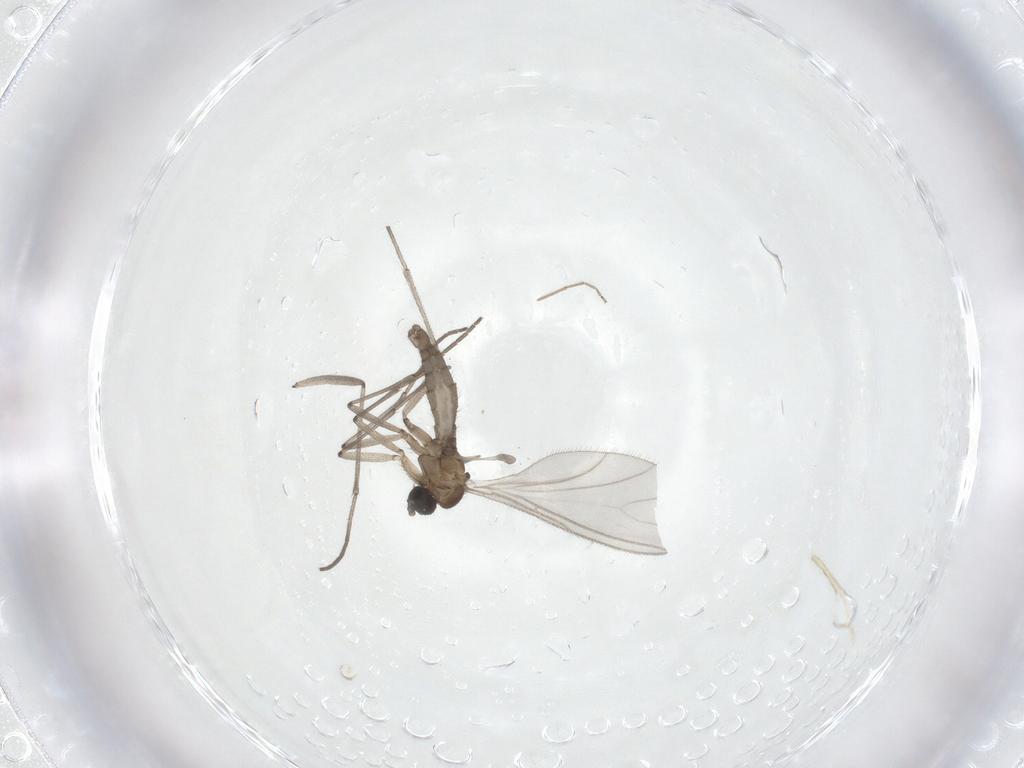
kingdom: Animalia
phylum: Arthropoda
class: Insecta
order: Diptera
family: Sciaridae
